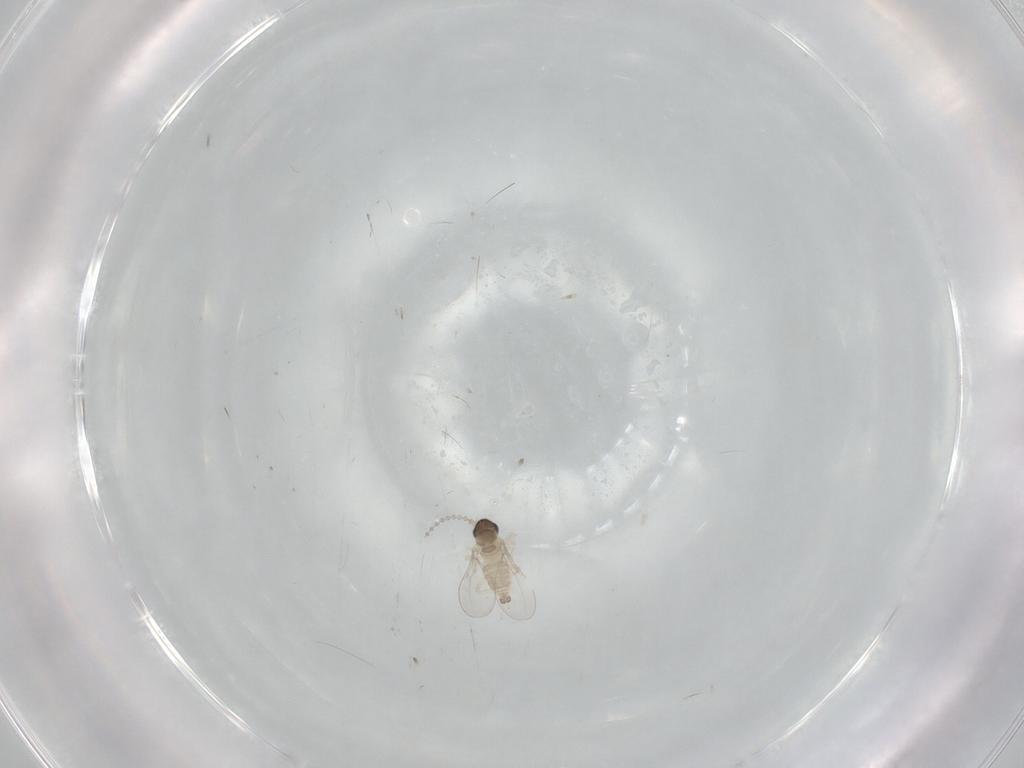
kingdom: Animalia
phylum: Arthropoda
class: Insecta
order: Diptera
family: Cecidomyiidae
